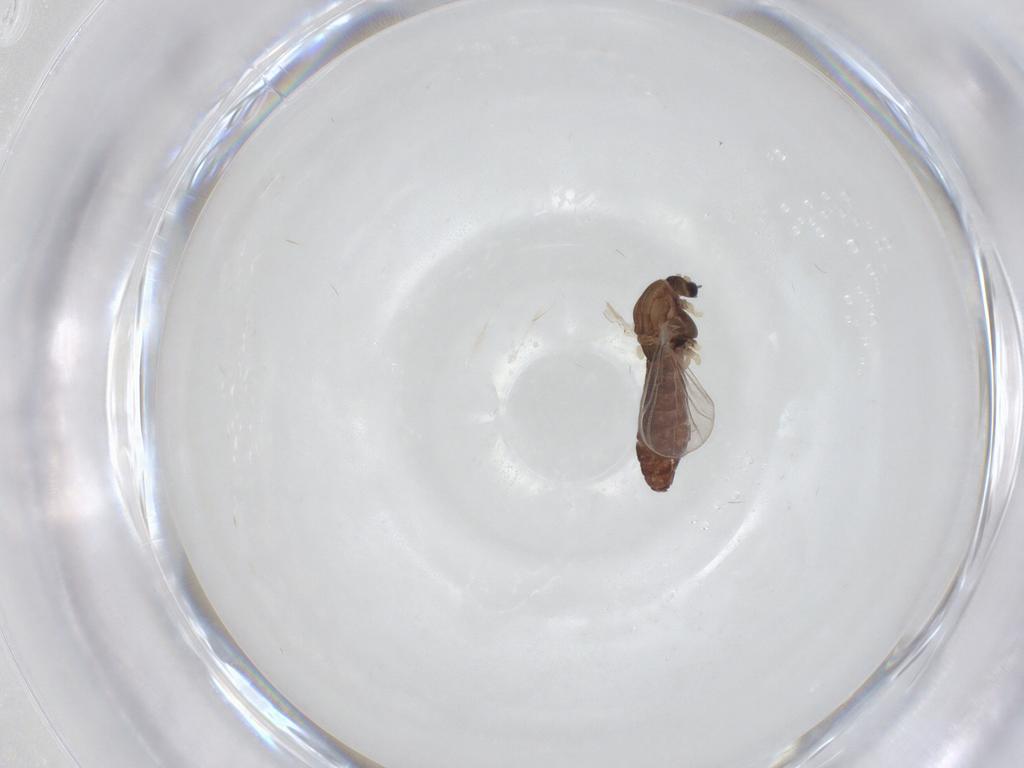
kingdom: Animalia
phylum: Arthropoda
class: Insecta
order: Diptera
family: Chironomidae
